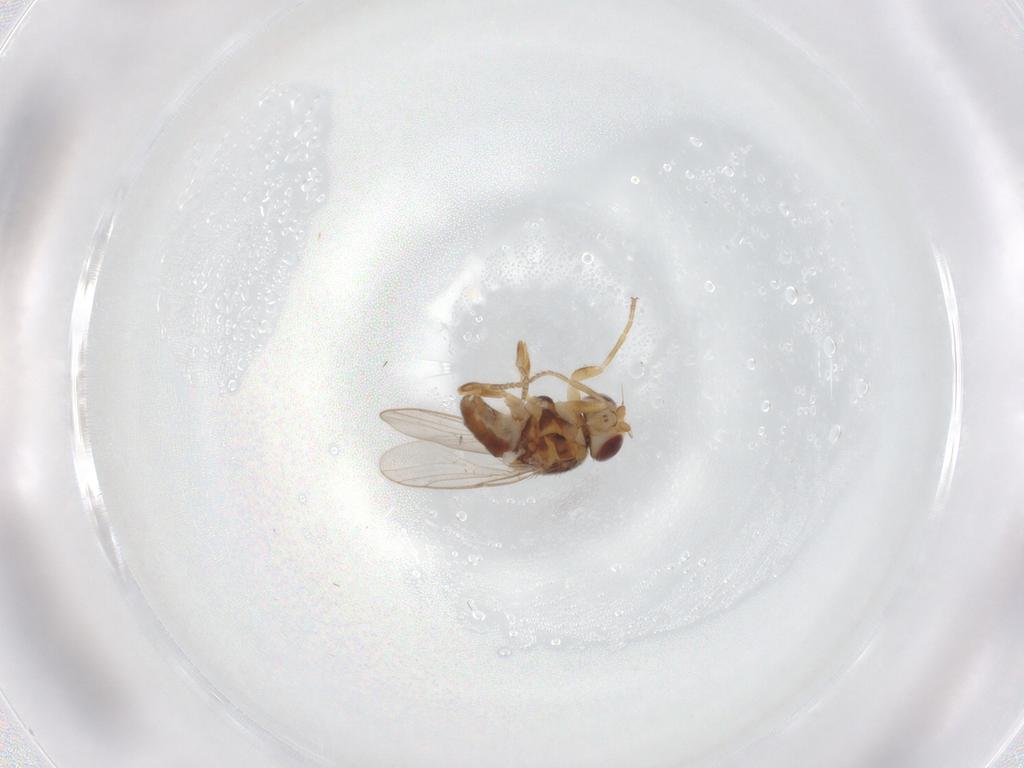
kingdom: Animalia
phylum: Arthropoda
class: Insecta
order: Diptera
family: Chloropidae
